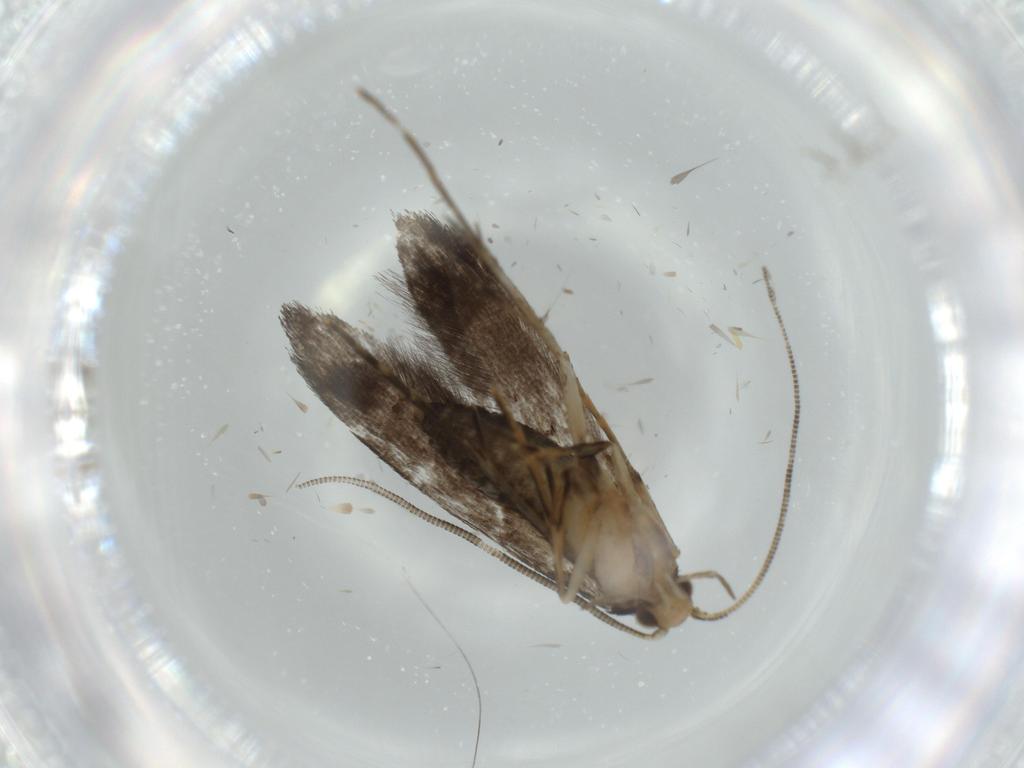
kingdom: Animalia
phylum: Arthropoda
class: Insecta
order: Lepidoptera
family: Tineidae
